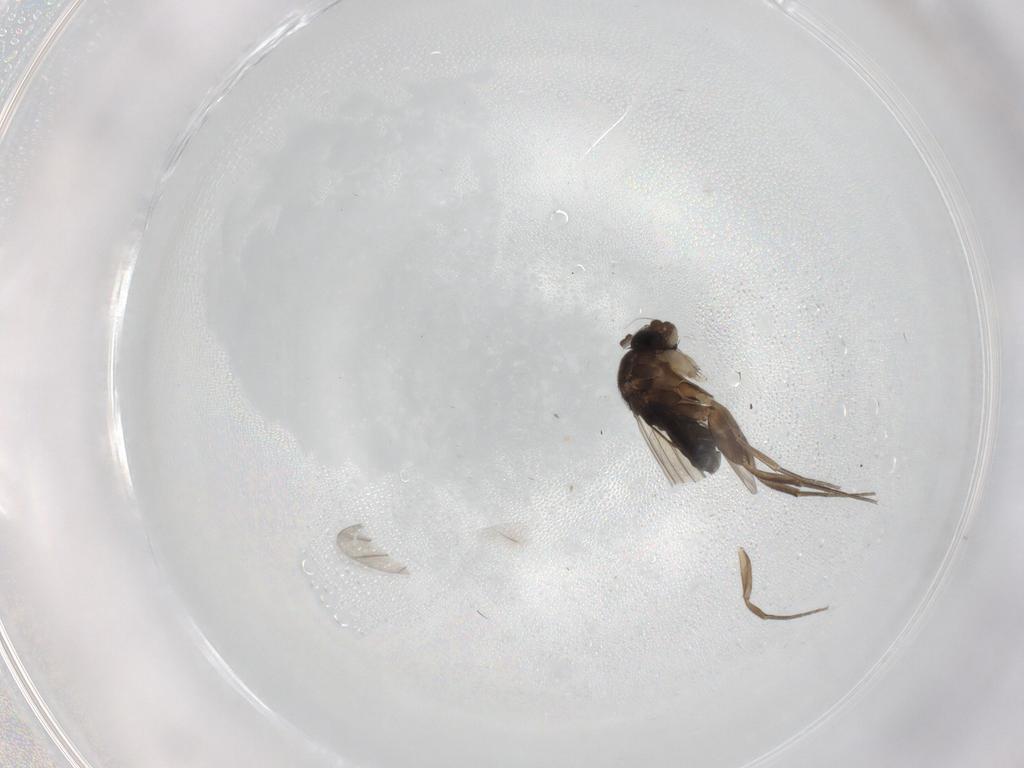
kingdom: Animalia
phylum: Arthropoda
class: Insecta
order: Diptera
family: Phoridae
